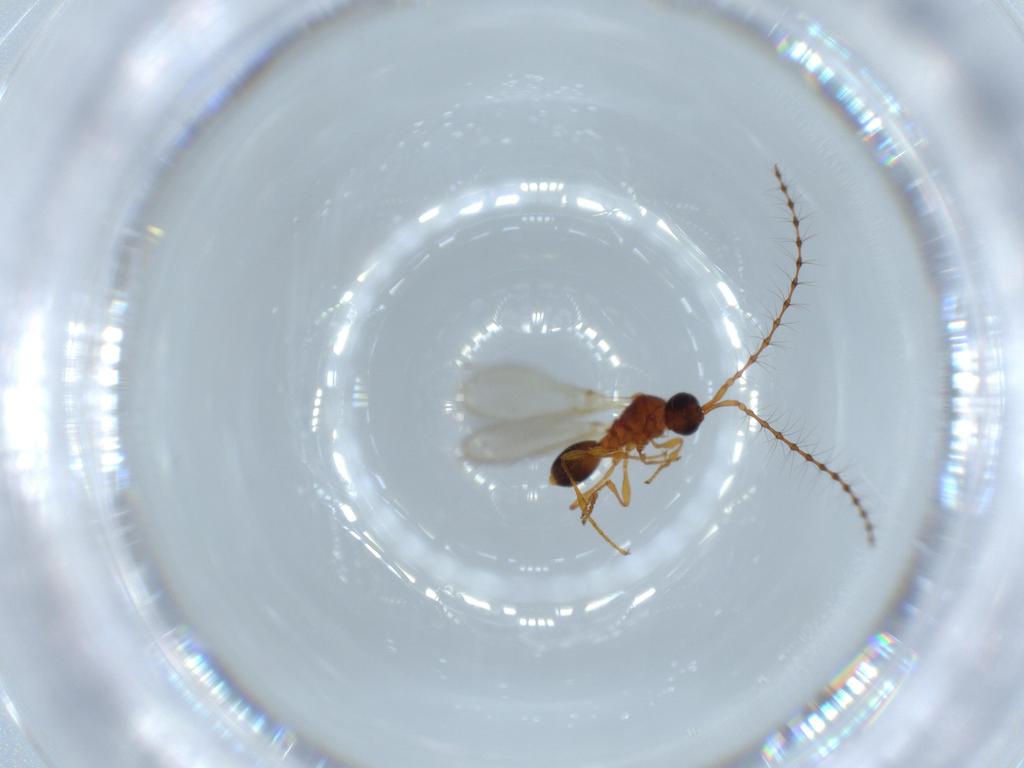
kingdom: Animalia
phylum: Arthropoda
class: Insecta
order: Hymenoptera
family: Diapriidae
